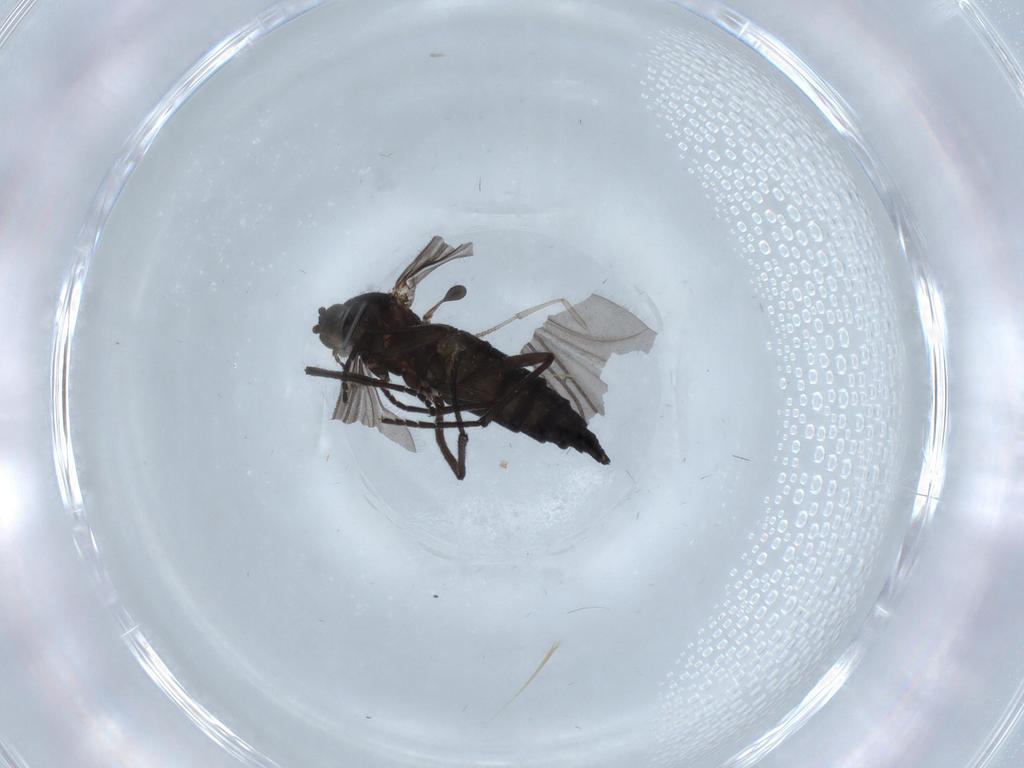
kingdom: Animalia
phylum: Arthropoda
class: Insecta
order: Diptera
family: Sciaridae
